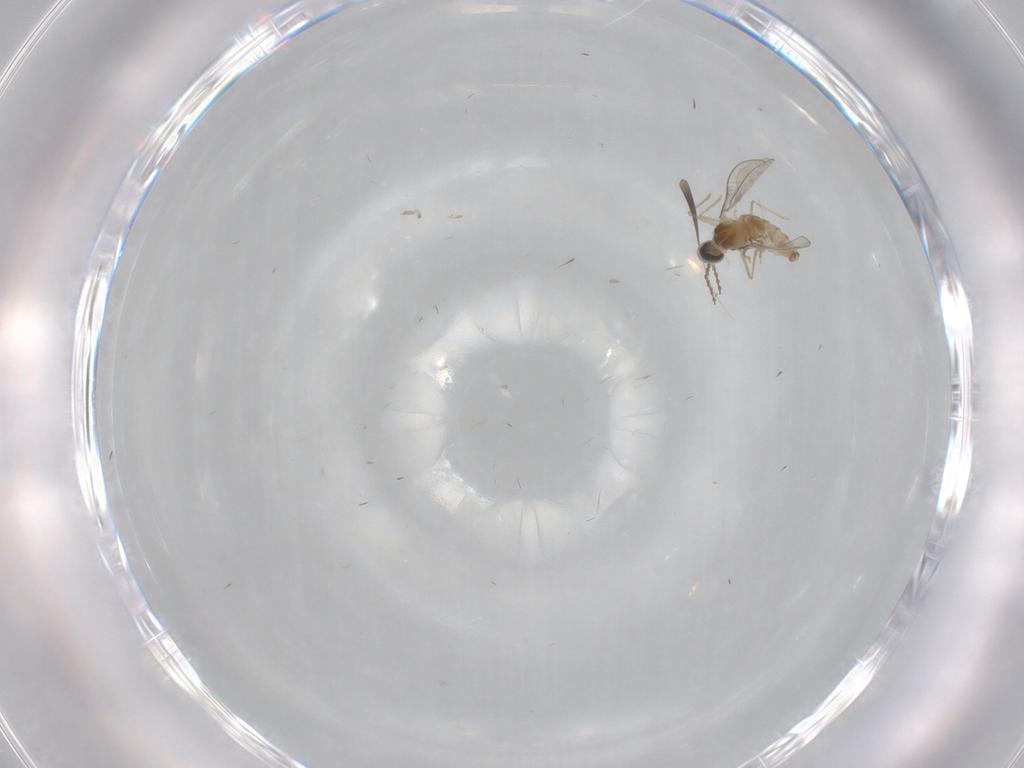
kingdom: Animalia
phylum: Arthropoda
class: Insecta
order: Diptera
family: Cecidomyiidae
